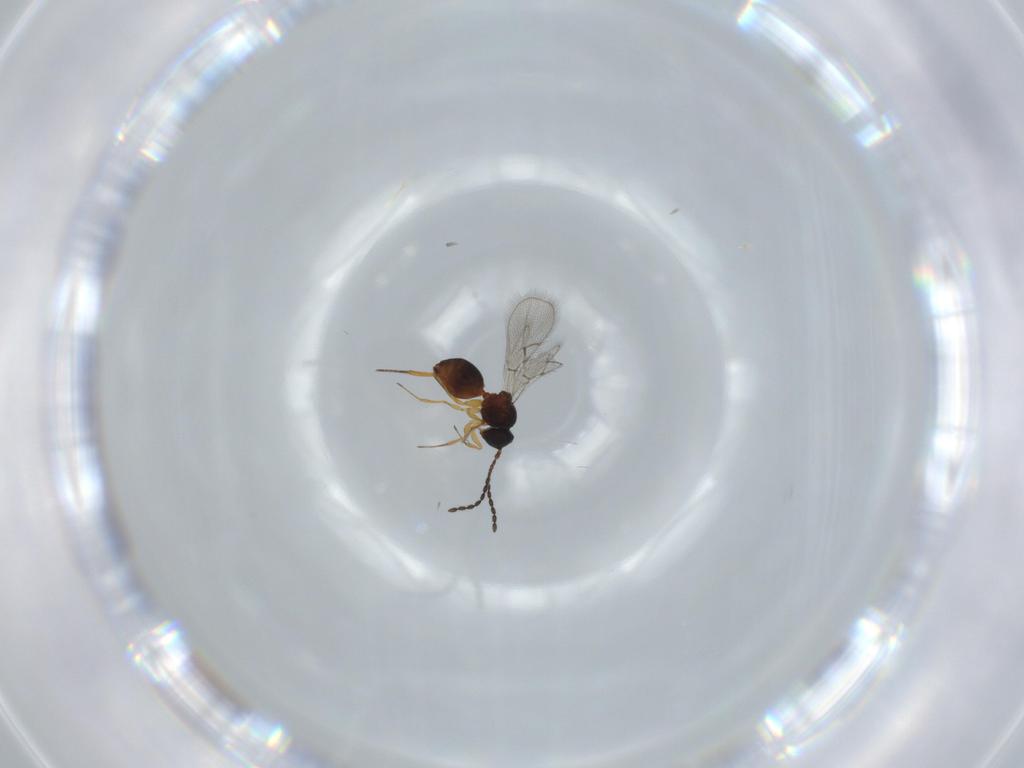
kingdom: Animalia
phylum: Arthropoda
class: Insecta
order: Hymenoptera
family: Figitidae
